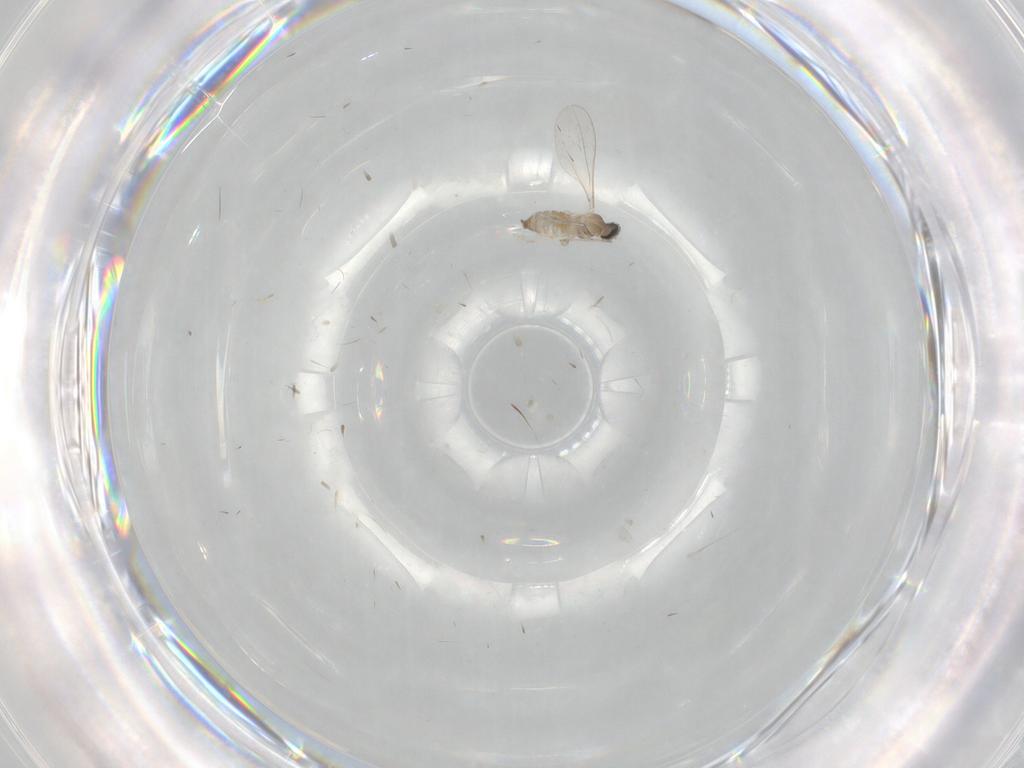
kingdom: Animalia
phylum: Arthropoda
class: Insecta
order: Diptera
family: Cecidomyiidae
